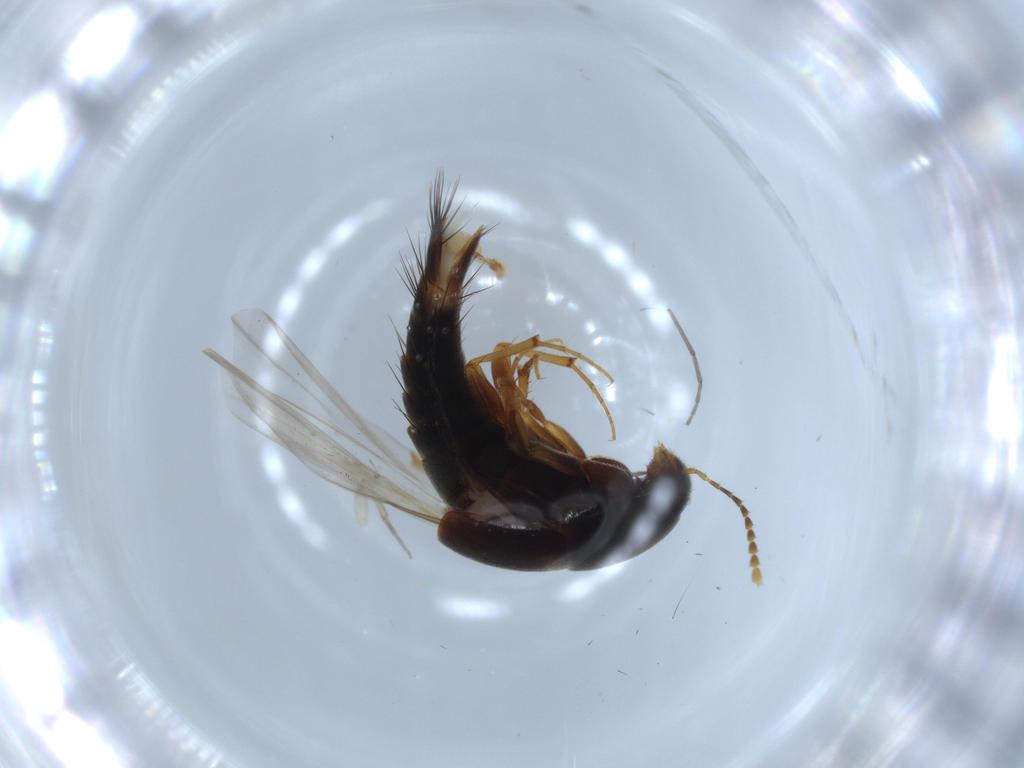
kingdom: Animalia
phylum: Arthropoda
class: Insecta
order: Coleoptera
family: Staphylinidae
